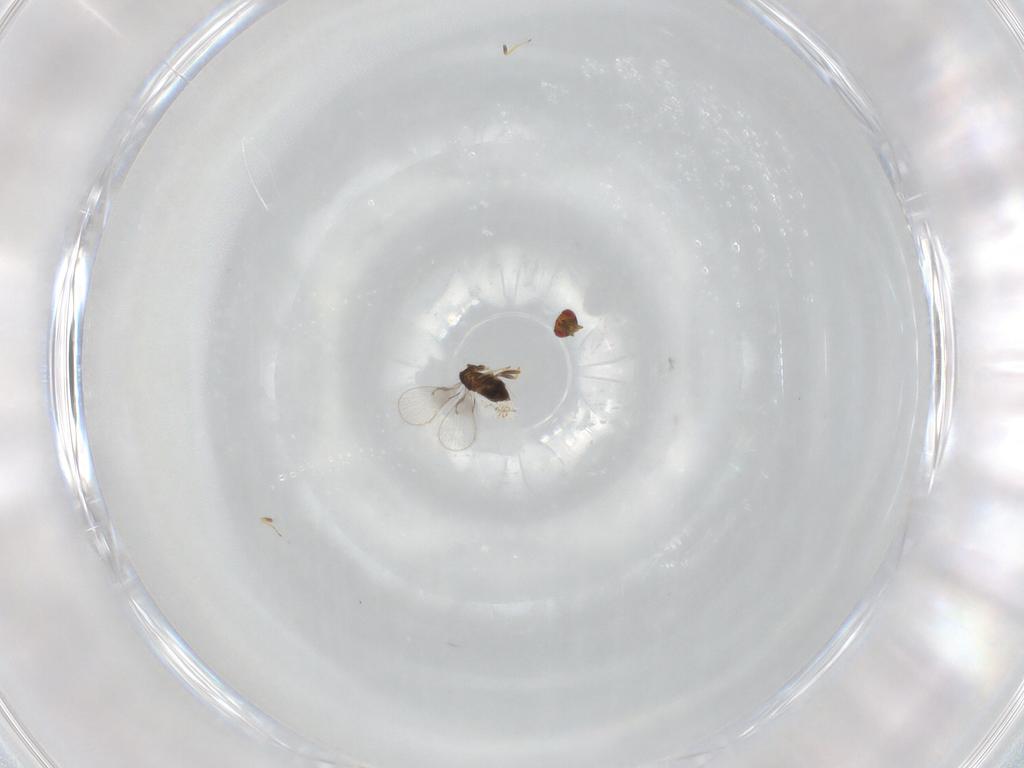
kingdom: Animalia
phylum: Arthropoda
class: Insecta
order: Hymenoptera
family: Trichogrammatidae
